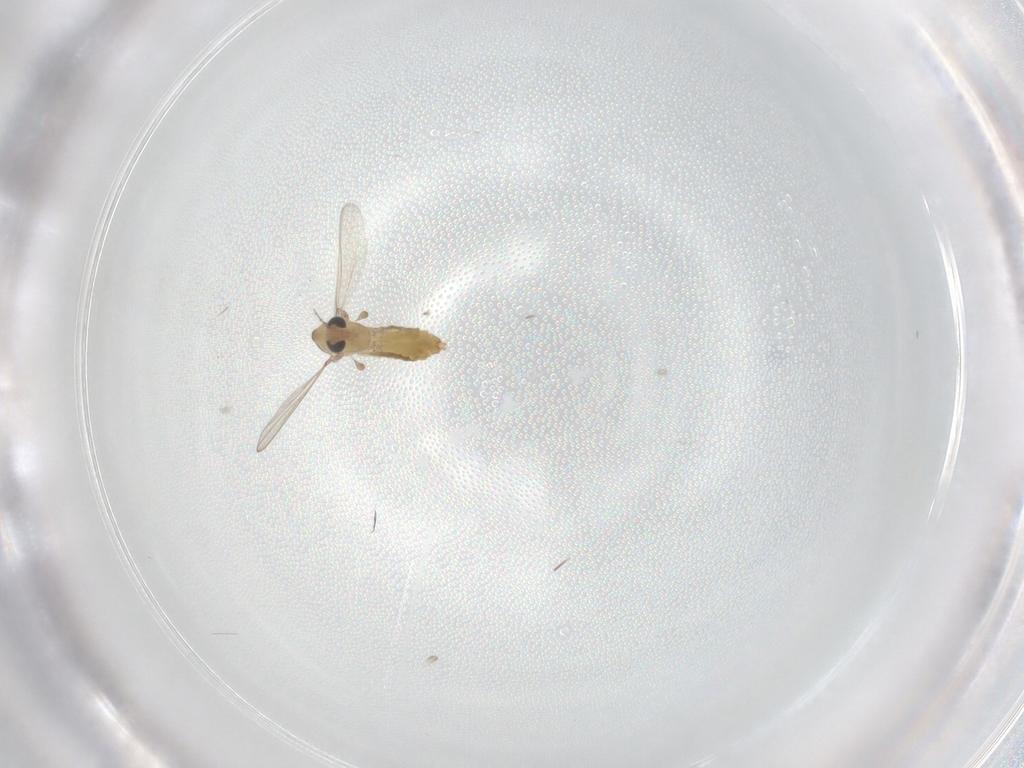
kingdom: Animalia
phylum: Arthropoda
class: Insecta
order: Diptera
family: Chironomidae
